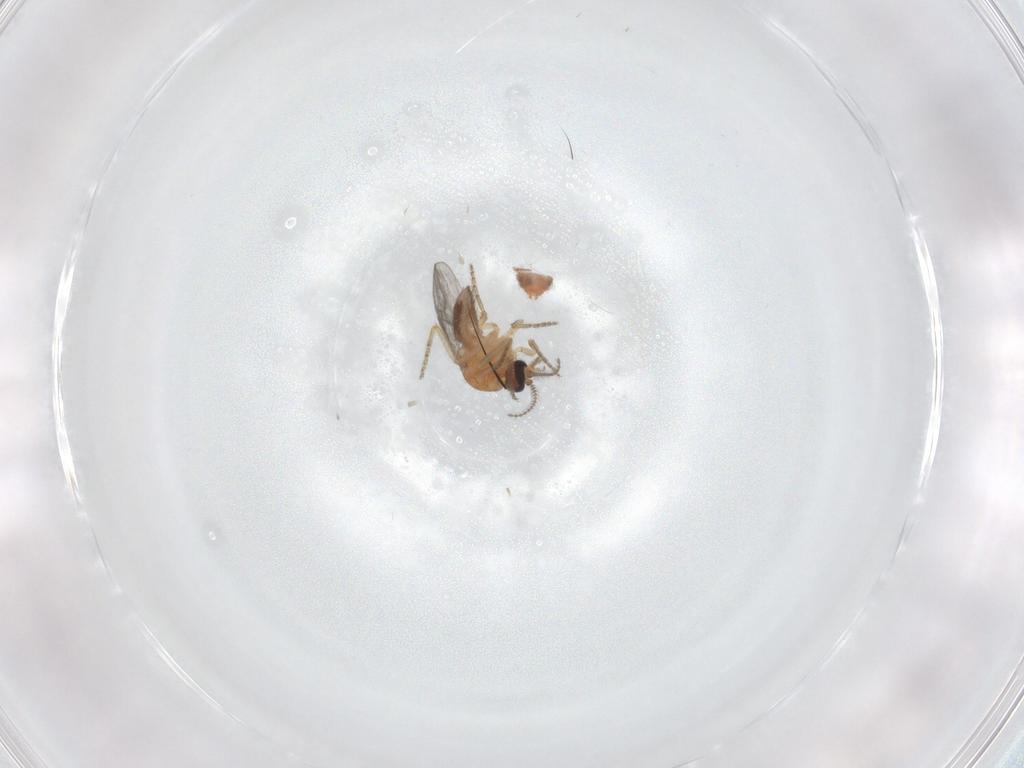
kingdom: Animalia
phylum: Arthropoda
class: Insecta
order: Diptera
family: Ceratopogonidae
